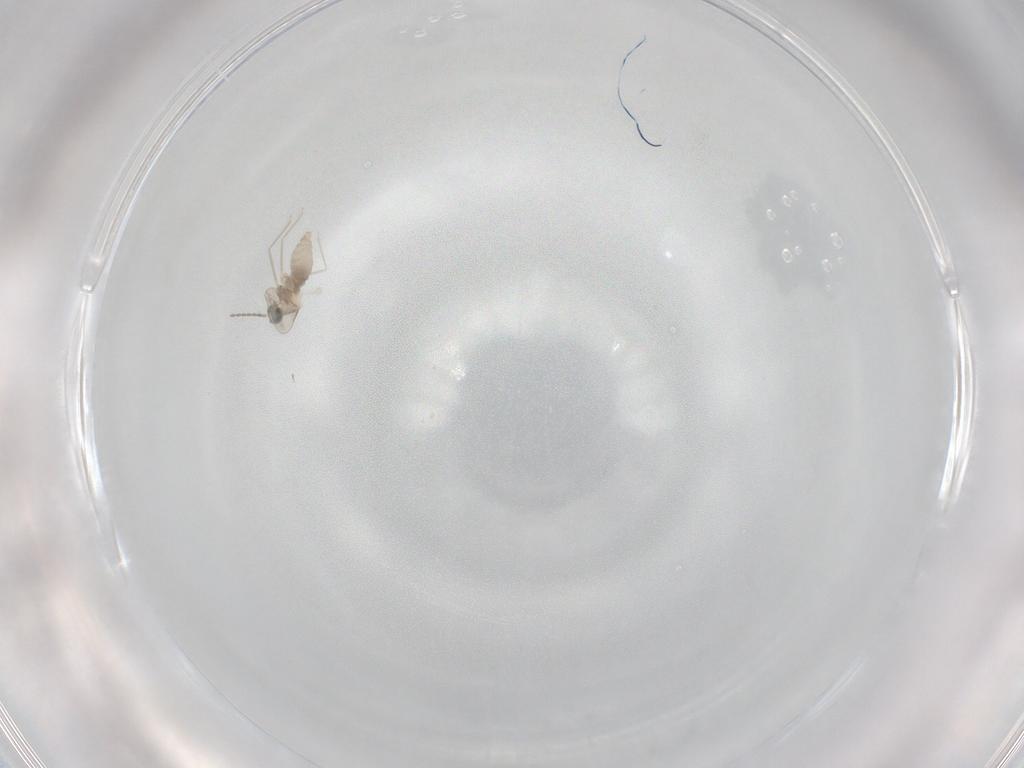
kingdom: Animalia
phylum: Arthropoda
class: Insecta
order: Diptera
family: Cecidomyiidae
